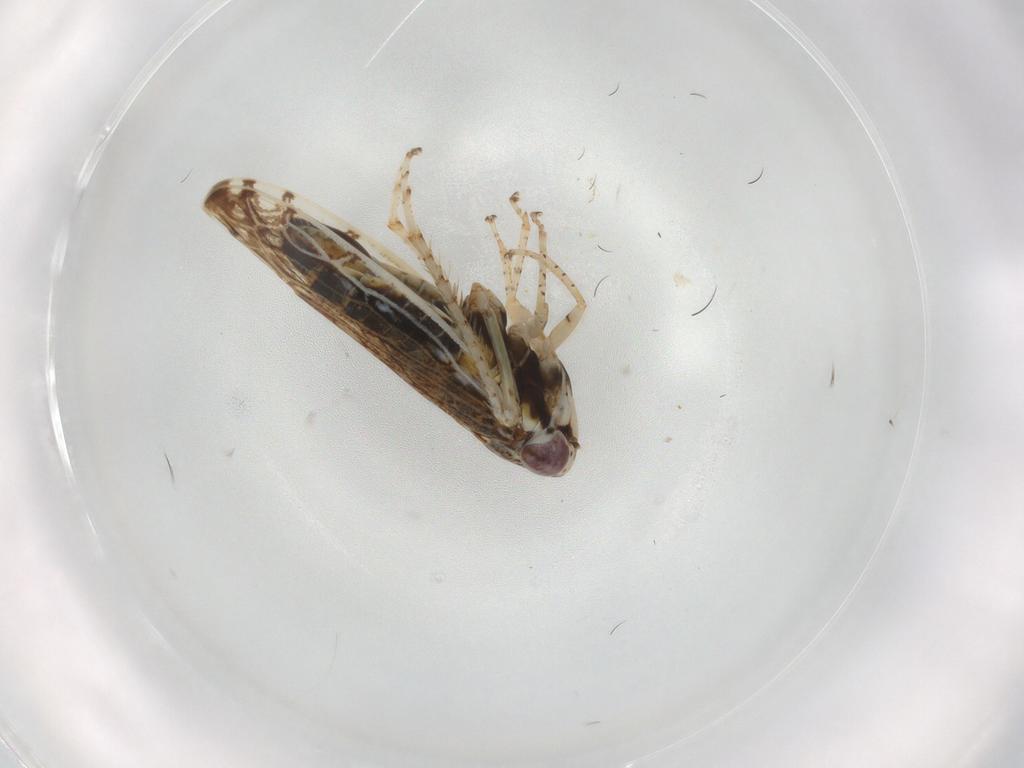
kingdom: Animalia
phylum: Arthropoda
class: Insecta
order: Hemiptera
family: Cicadellidae
